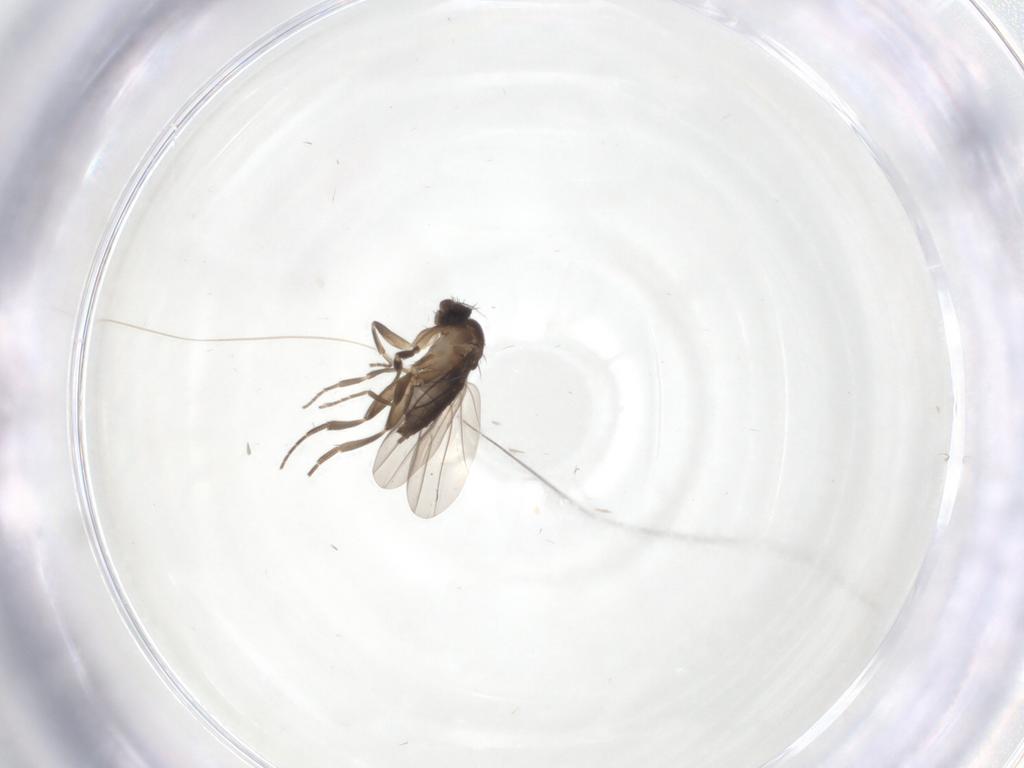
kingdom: Animalia
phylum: Arthropoda
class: Insecta
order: Diptera
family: Phoridae
